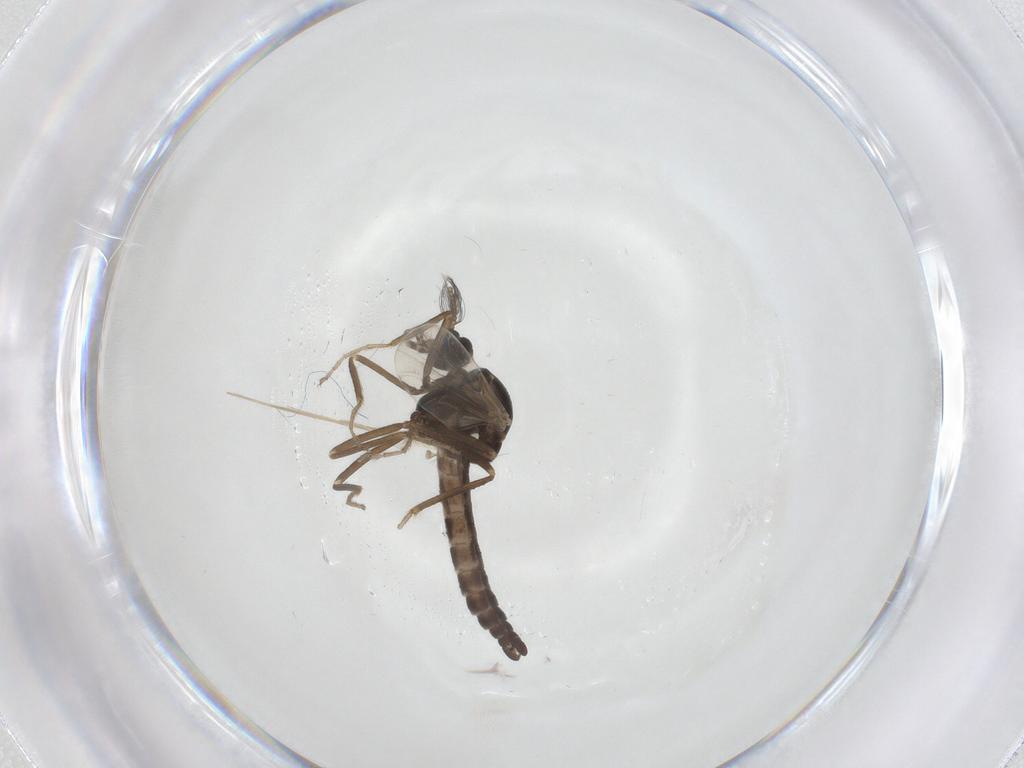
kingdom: Animalia
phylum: Arthropoda
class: Insecta
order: Diptera
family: Ceratopogonidae
